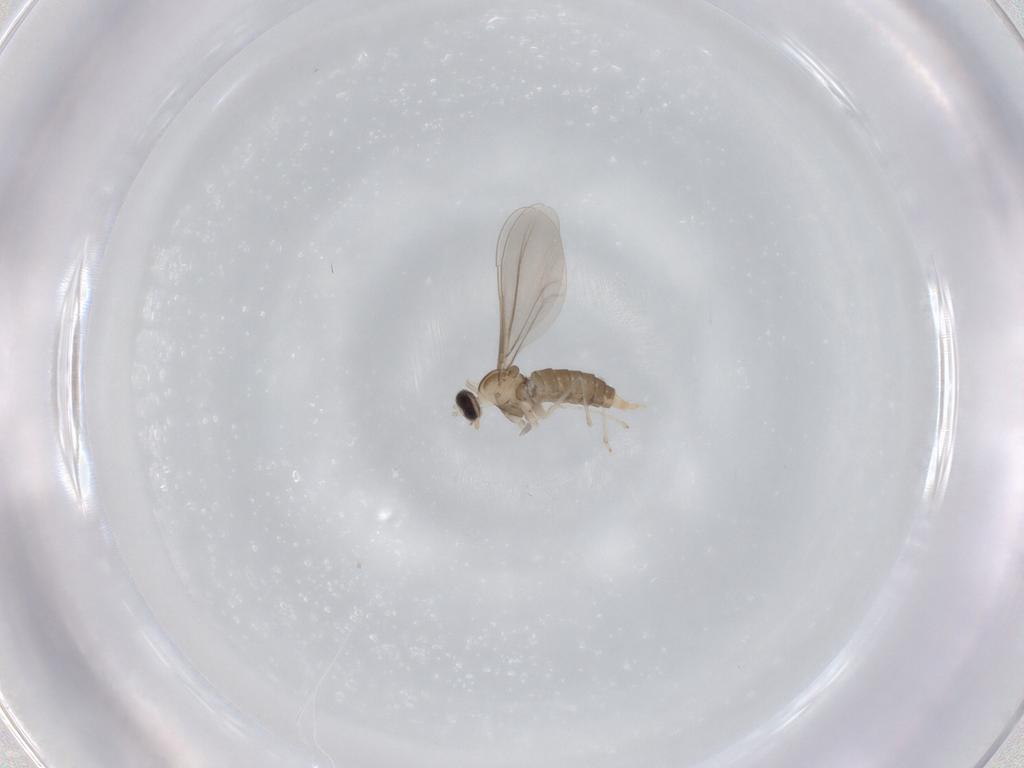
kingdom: Animalia
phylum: Arthropoda
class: Insecta
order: Diptera
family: Cecidomyiidae
